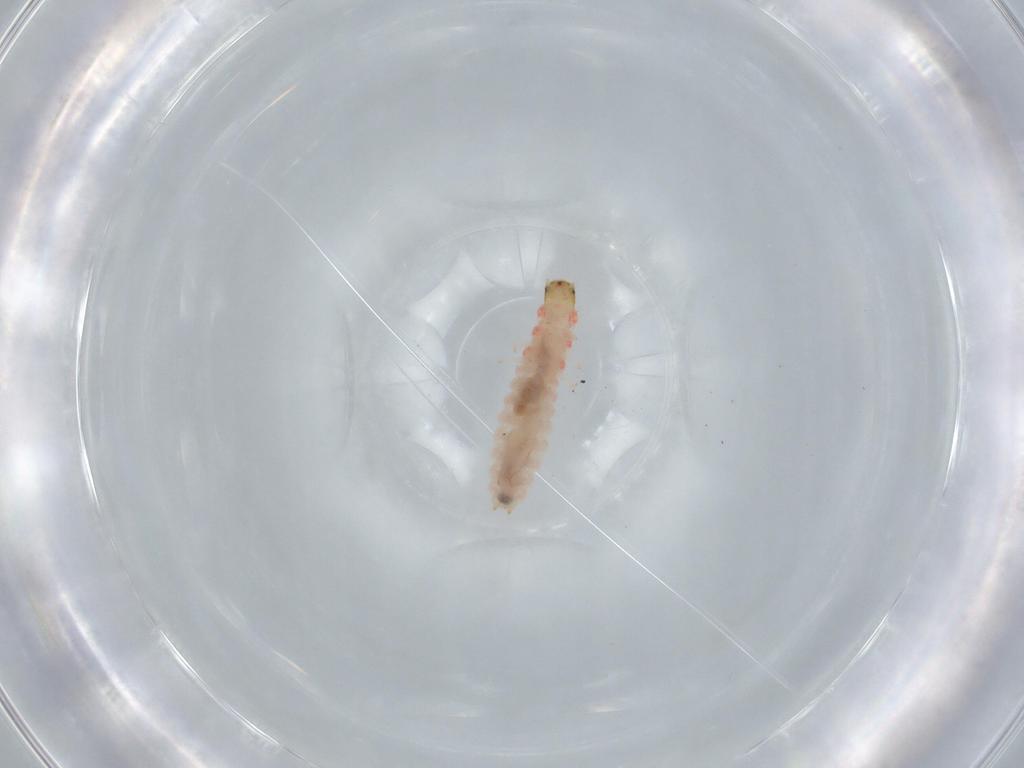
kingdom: Animalia
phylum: Arthropoda
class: Insecta
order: Coleoptera
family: Melyridae
